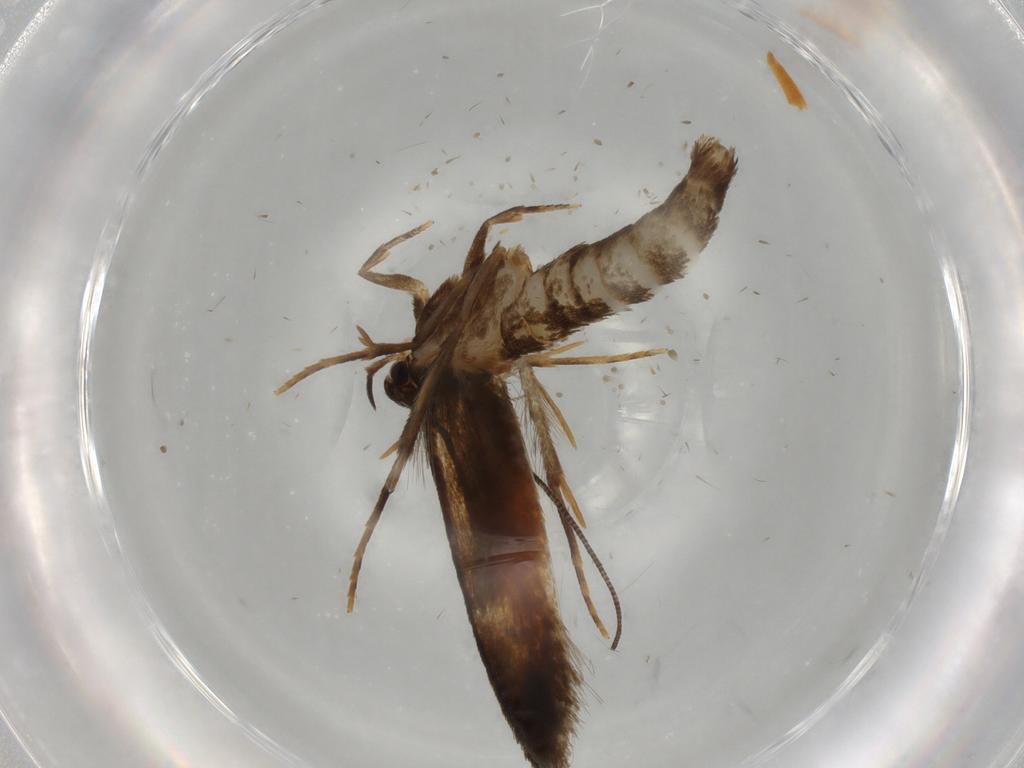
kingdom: Animalia
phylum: Arthropoda
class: Insecta
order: Lepidoptera
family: Tineidae
